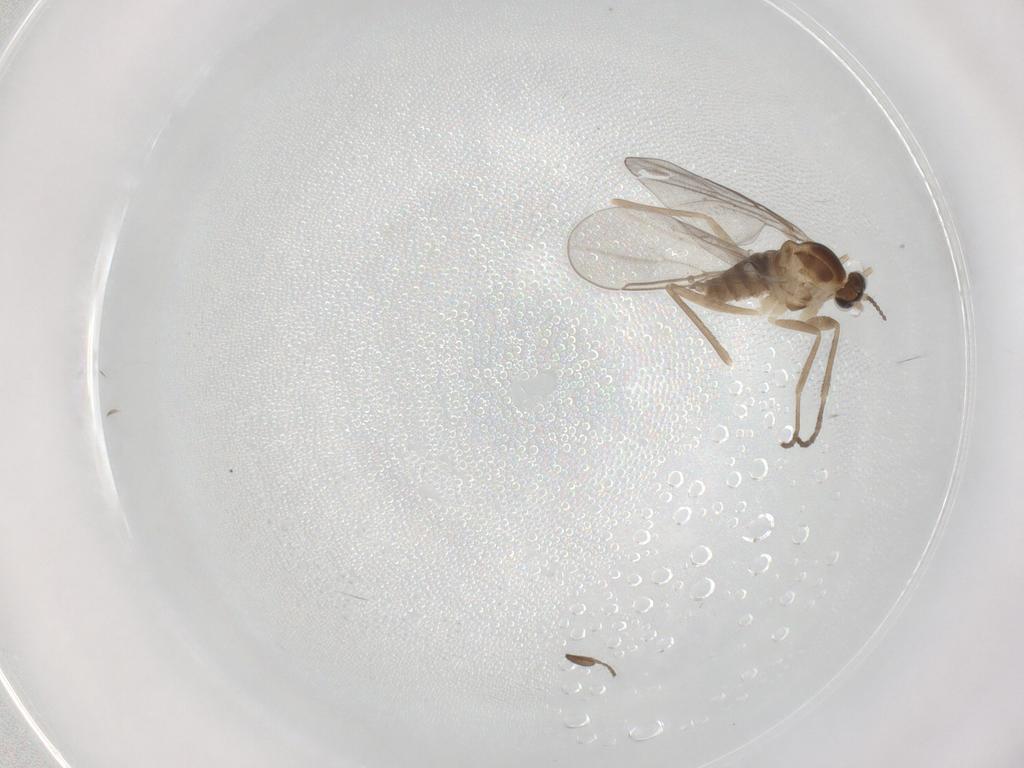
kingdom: Animalia
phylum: Arthropoda
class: Insecta
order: Diptera
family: Cecidomyiidae
